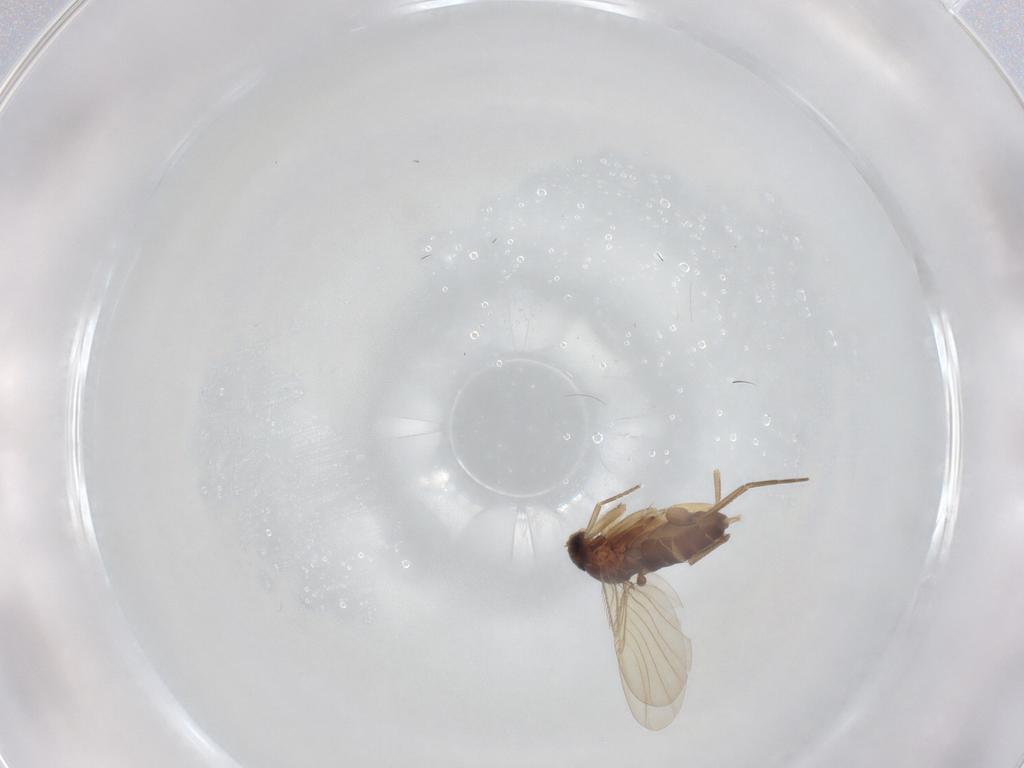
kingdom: Animalia
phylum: Arthropoda
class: Insecta
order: Diptera
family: Phoridae
